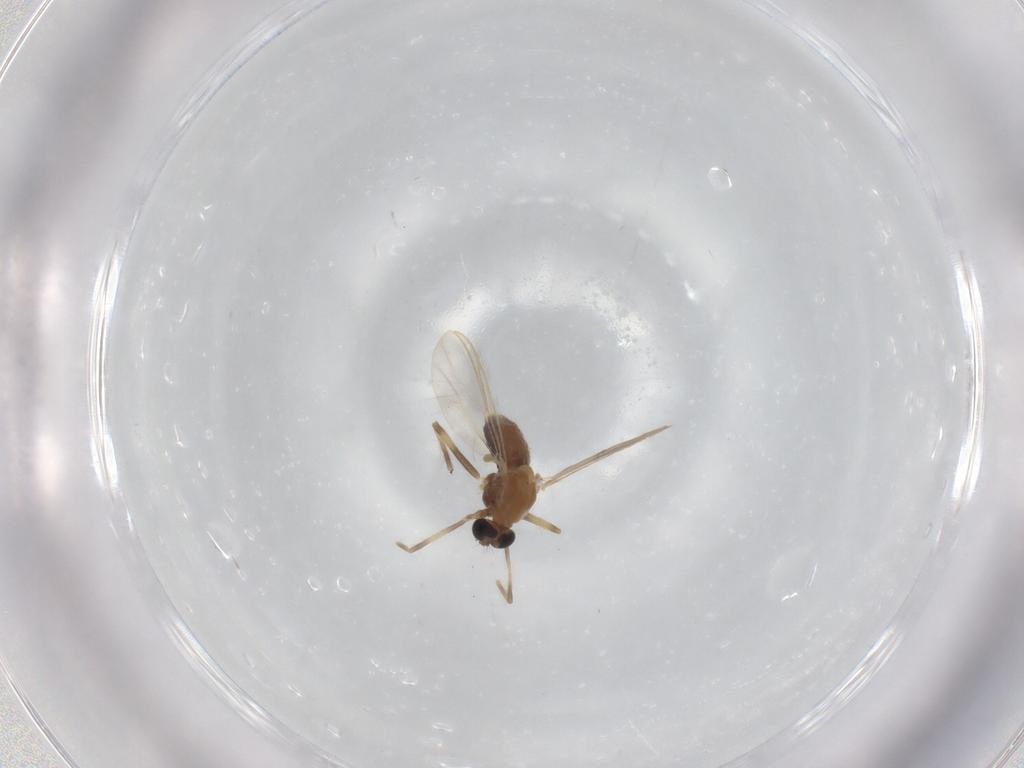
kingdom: Animalia
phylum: Arthropoda
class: Insecta
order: Diptera
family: Chironomidae
